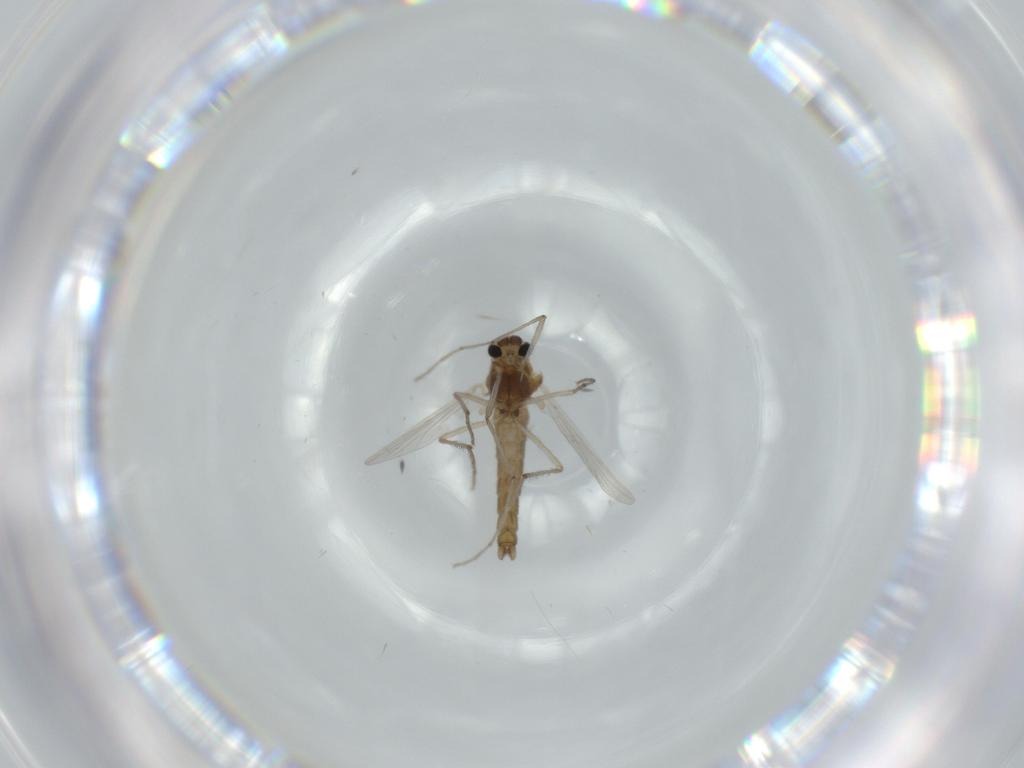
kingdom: Animalia
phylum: Arthropoda
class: Insecta
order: Diptera
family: Chironomidae
